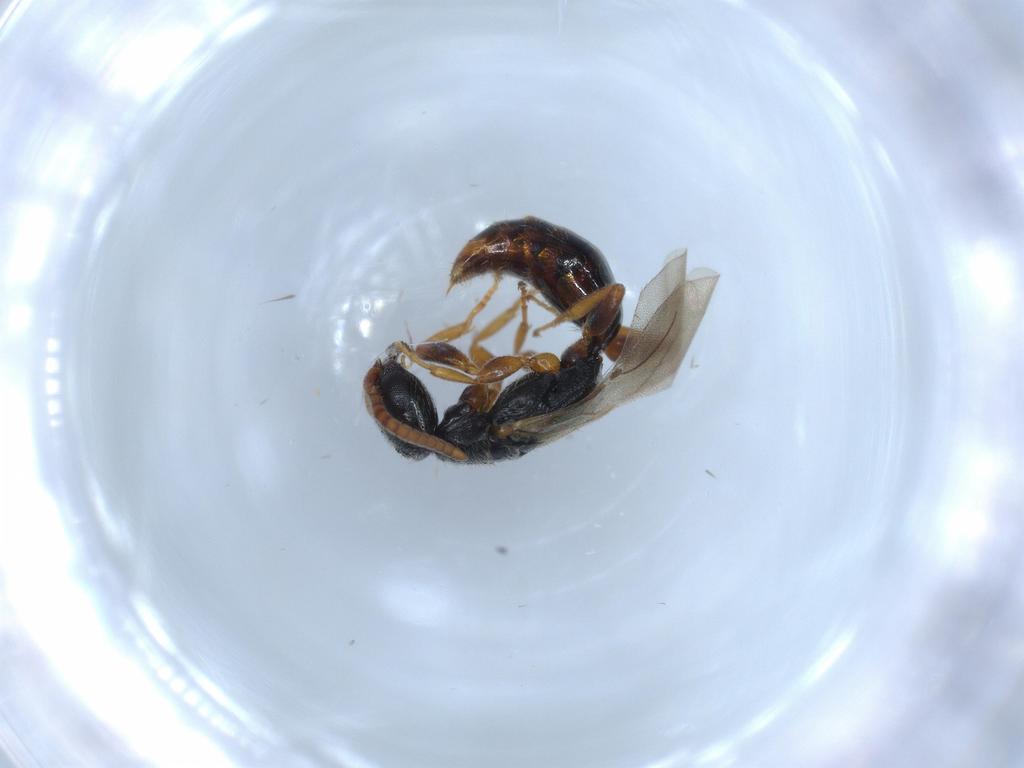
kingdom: Animalia
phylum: Arthropoda
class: Insecta
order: Hymenoptera
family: Bethylidae
